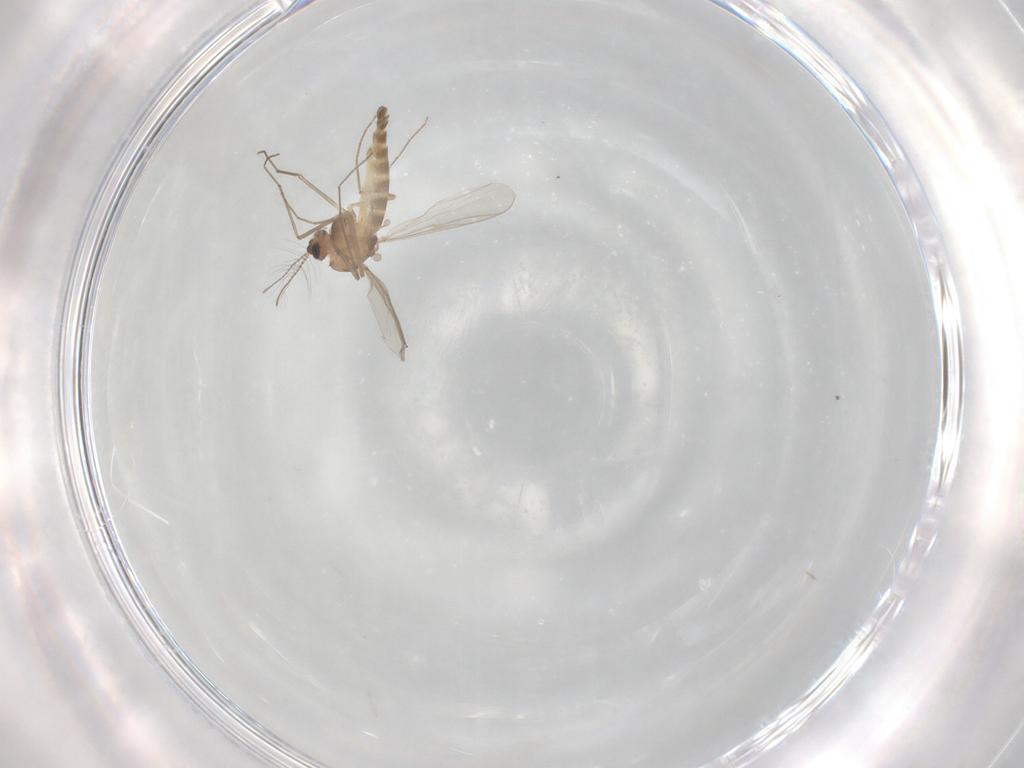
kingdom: Animalia
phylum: Arthropoda
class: Insecta
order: Diptera
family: Chironomidae
